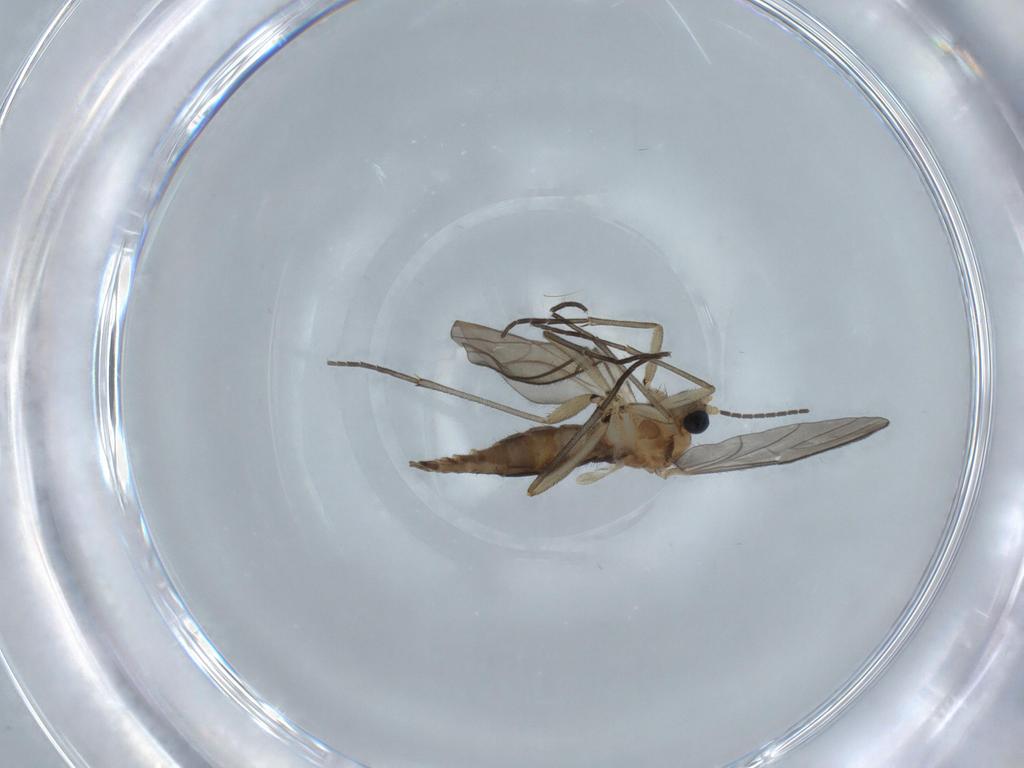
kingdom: Animalia
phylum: Arthropoda
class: Insecta
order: Diptera
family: Sciaridae
